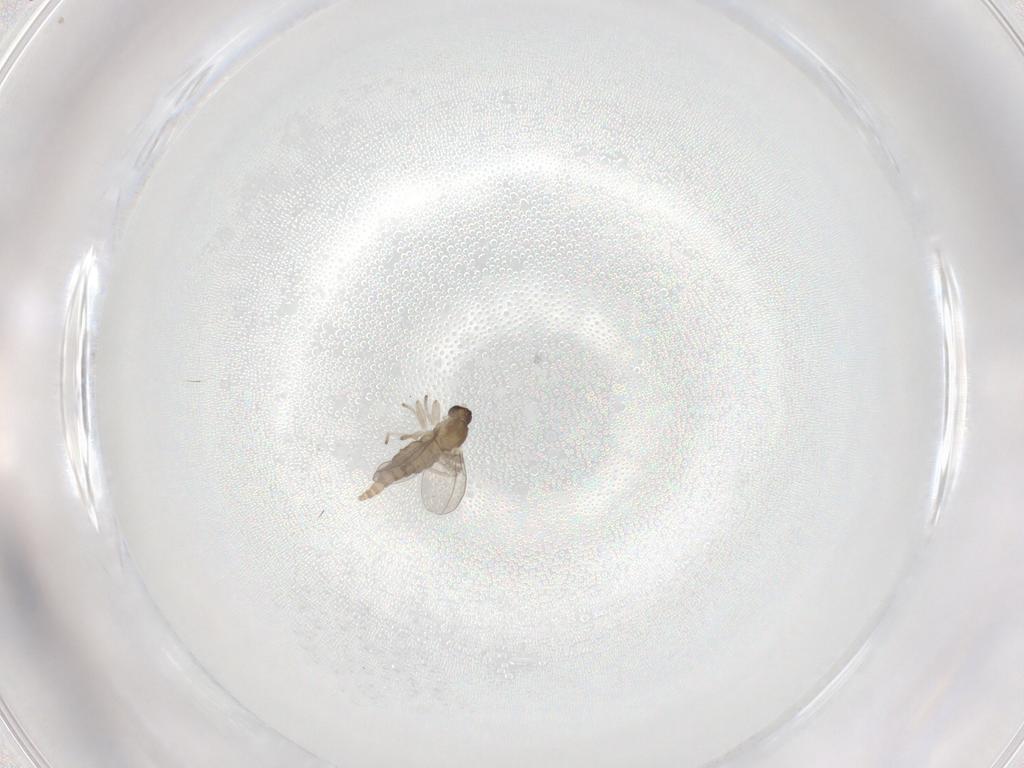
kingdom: Animalia
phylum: Arthropoda
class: Insecta
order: Diptera
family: Cecidomyiidae
